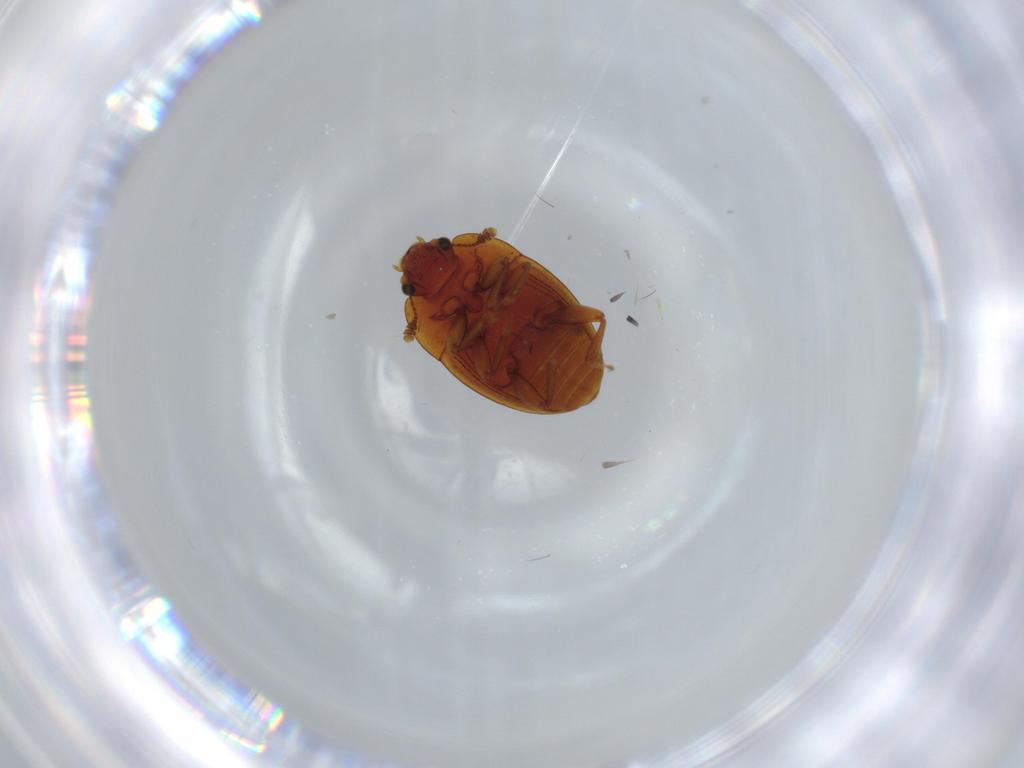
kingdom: Animalia
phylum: Arthropoda
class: Insecta
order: Coleoptera
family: Nitidulidae
